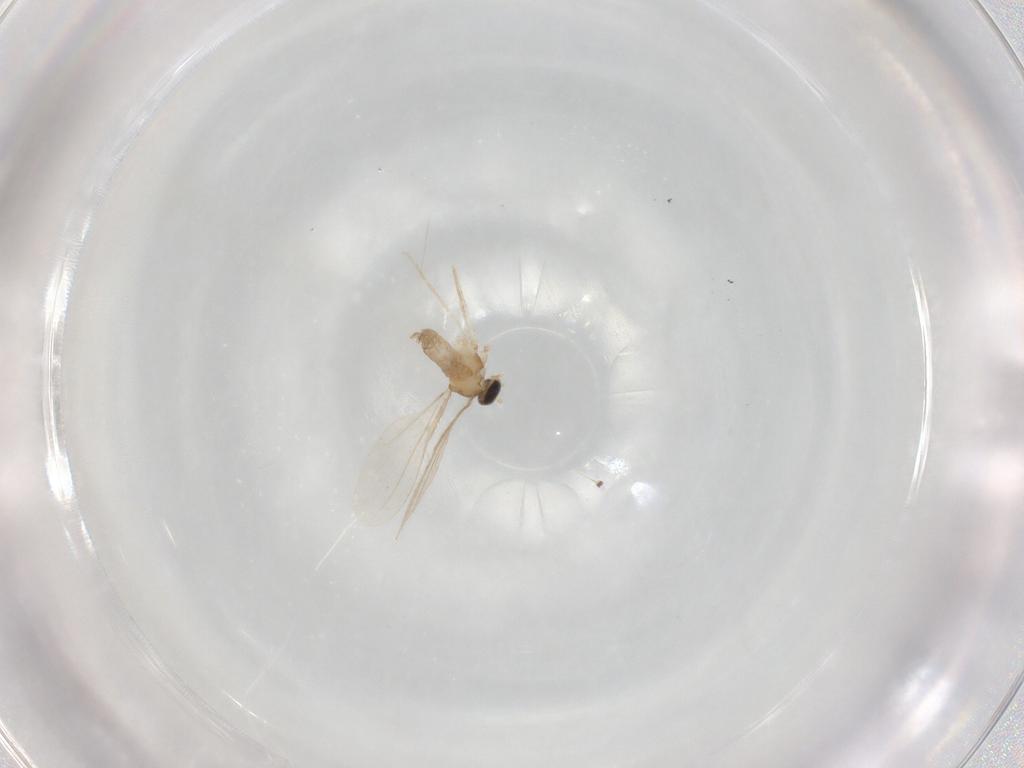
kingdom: Animalia
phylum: Arthropoda
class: Insecta
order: Diptera
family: Cecidomyiidae
